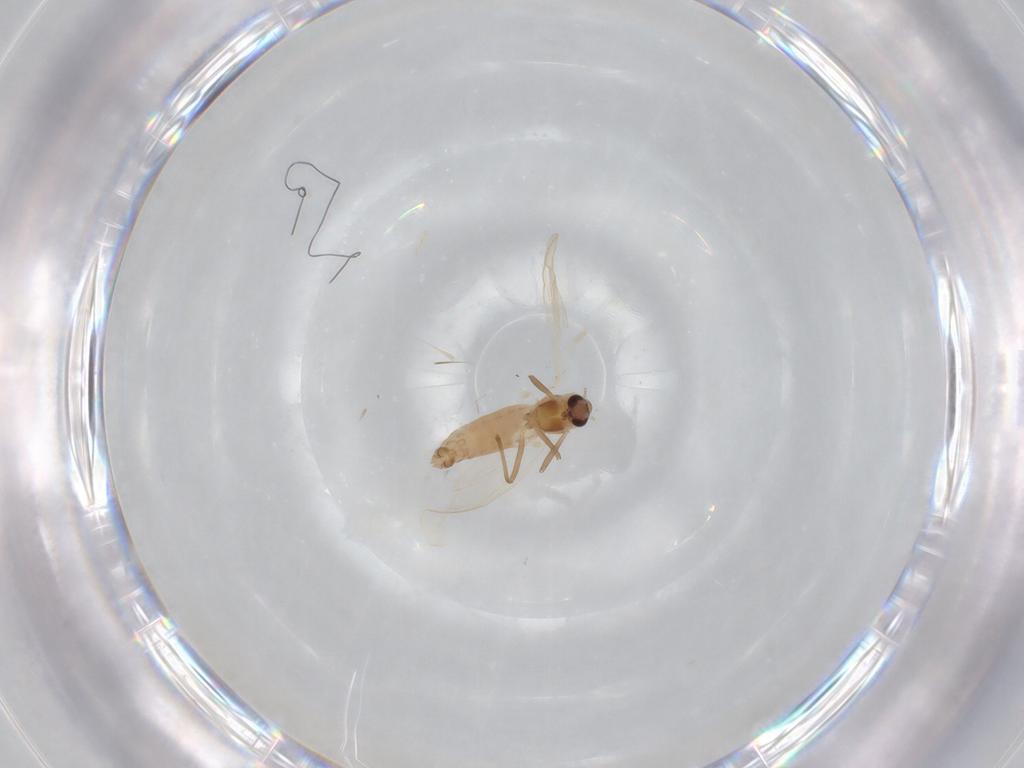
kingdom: Animalia
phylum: Arthropoda
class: Insecta
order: Diptera
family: Chironomidae
